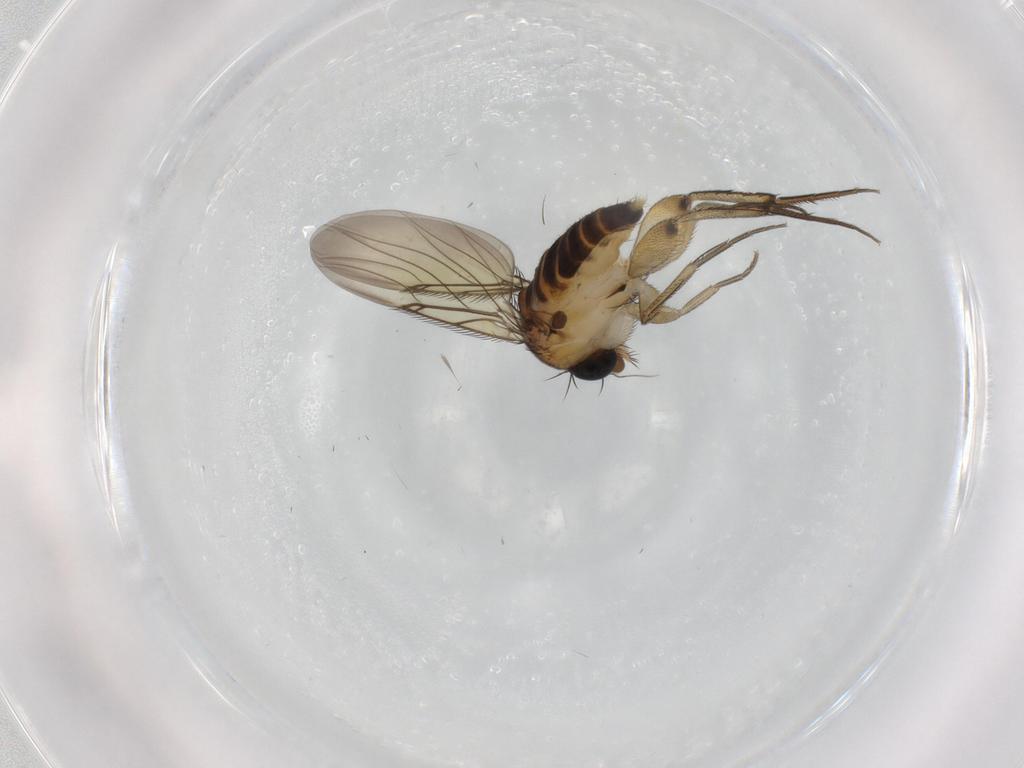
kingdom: Animalia
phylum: Arthropoda
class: Insecta
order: Diptera
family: Phoridae
